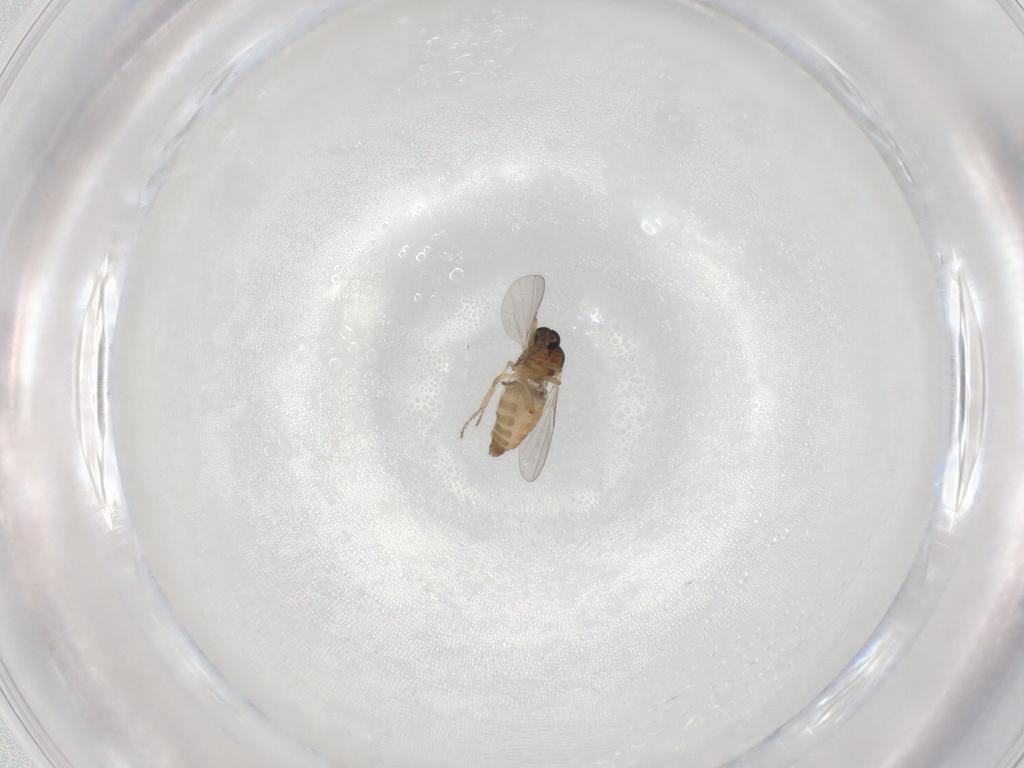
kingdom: Animalia
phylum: Arthropoda
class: Insecta
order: Diptera
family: Ceratopogonidae
